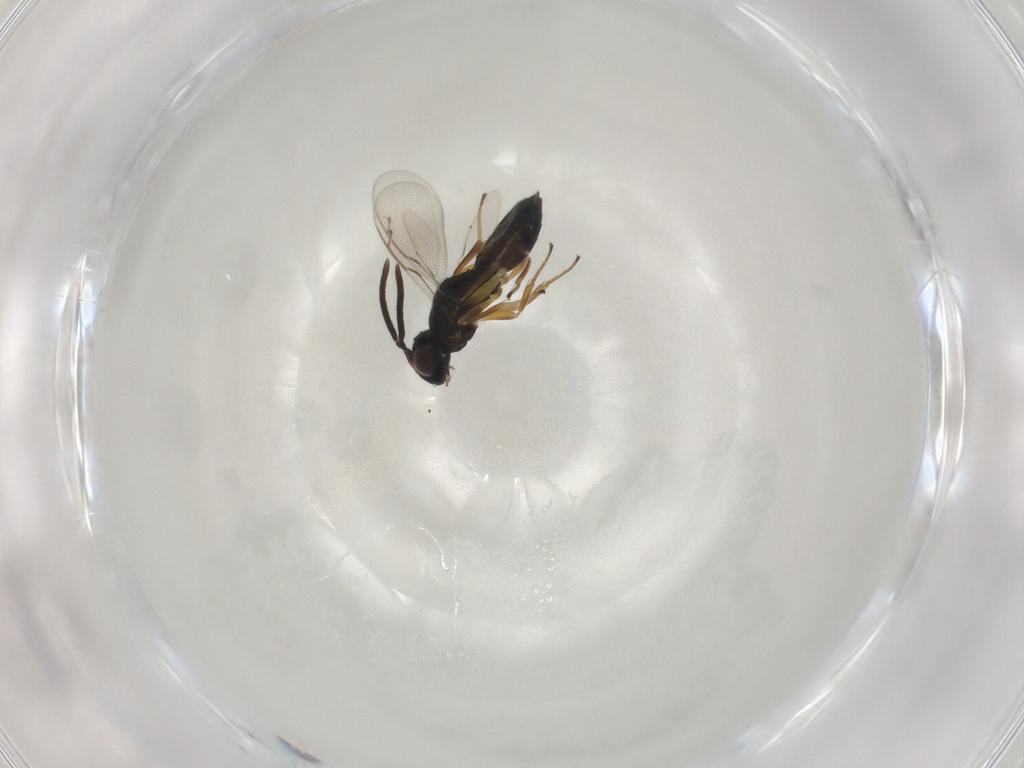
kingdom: Animalia
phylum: Arthropoda
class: Insecta
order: Hymenoptera
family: Eupelmidae
